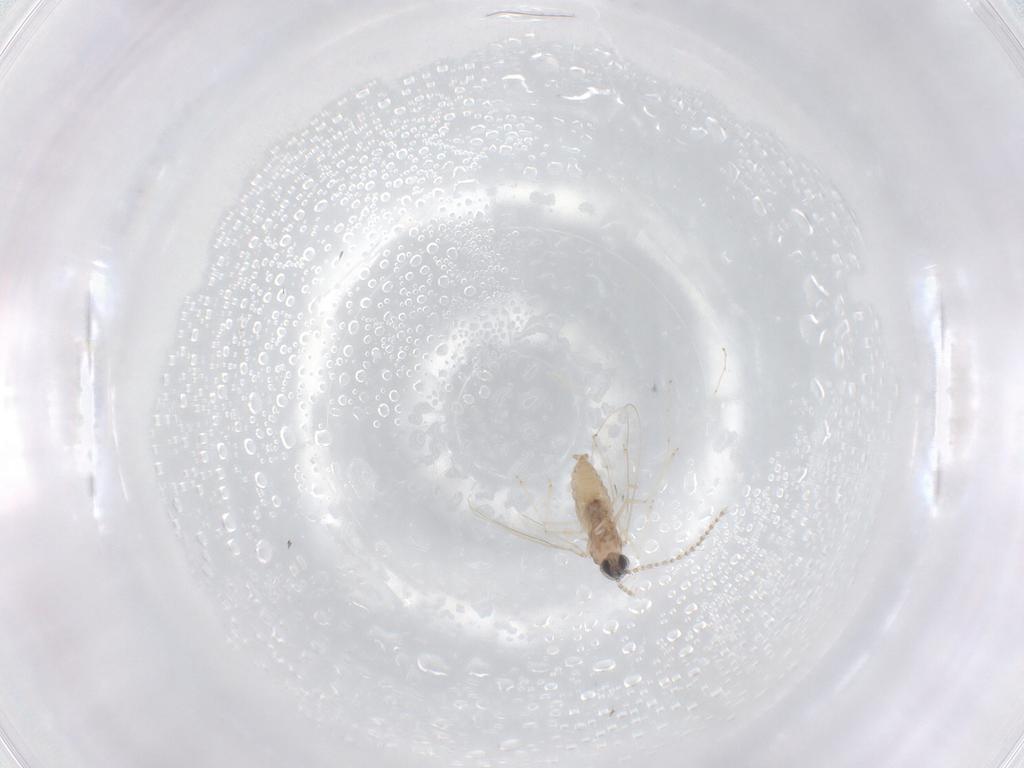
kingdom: Animalia
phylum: Arthropoda
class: Insecta
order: Diptera
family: Cecidomyiidae
